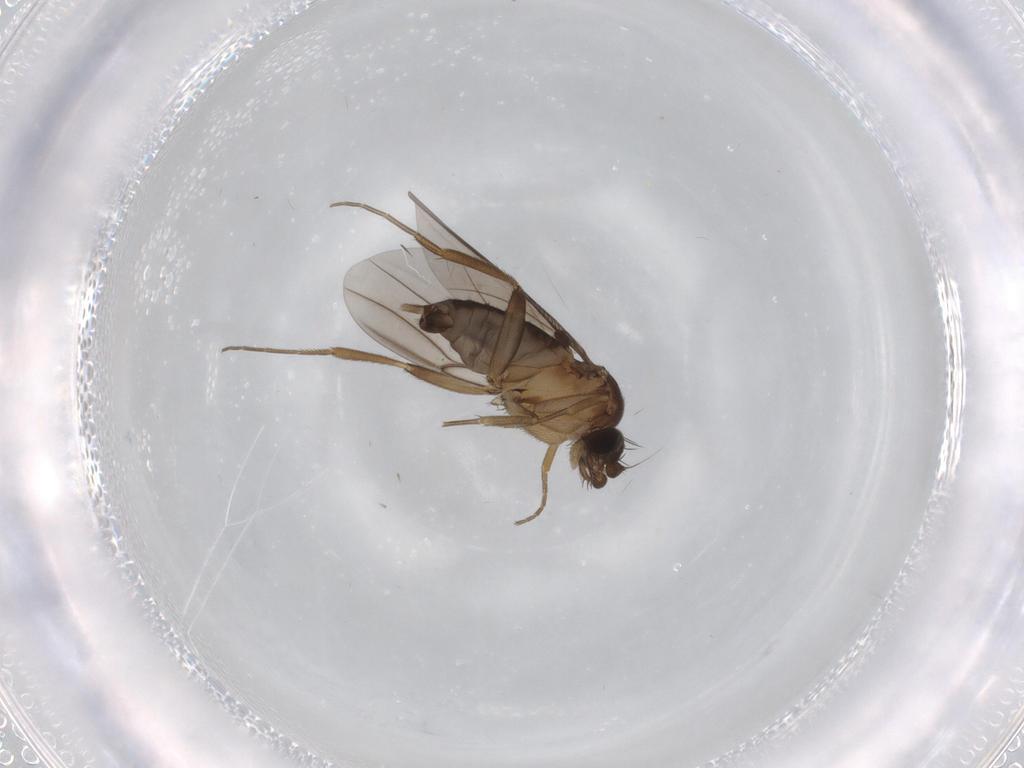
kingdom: Animalia
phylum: Arthropoda
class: Insecta
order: Diptera
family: Phoridae
